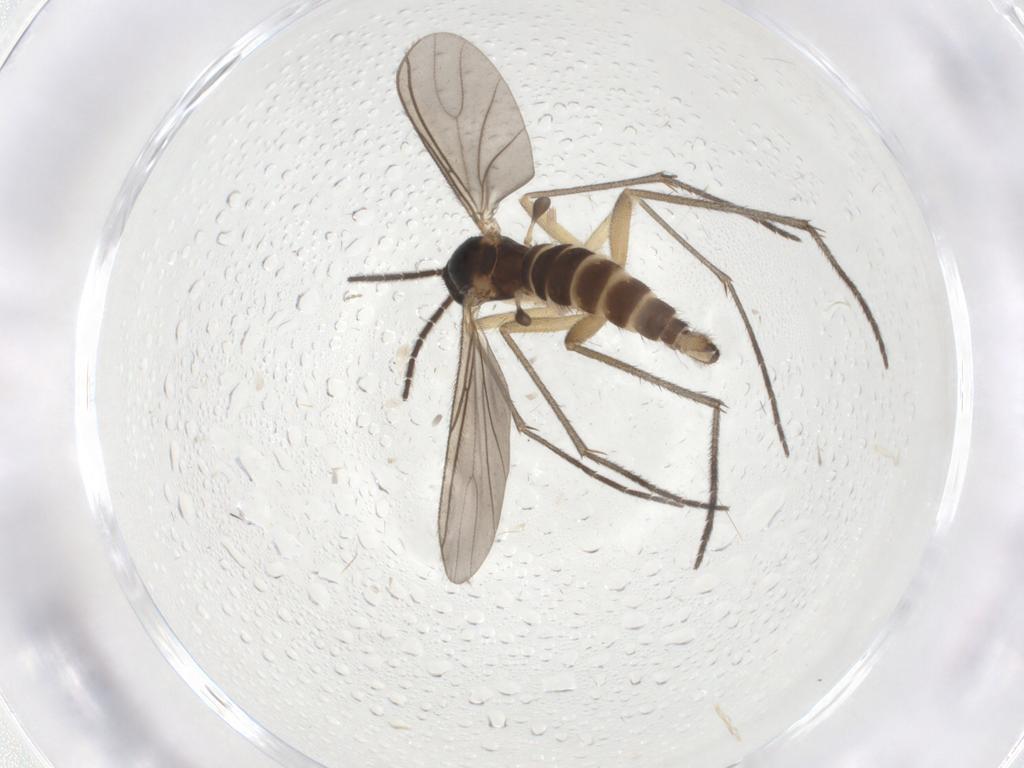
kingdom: Animalia
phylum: Arthropoda
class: Insecta
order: Diptera
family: Sciaridae
